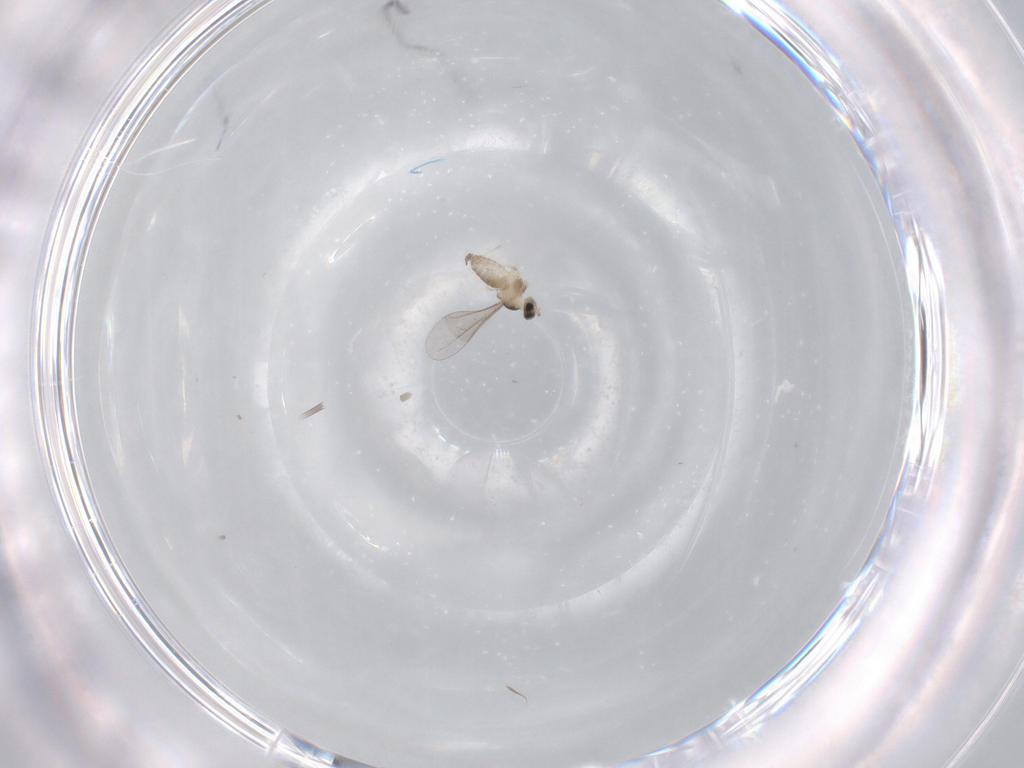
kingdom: Animalia
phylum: Arthropoda
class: Insecta
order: Diptera
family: Cecidomyiidae
